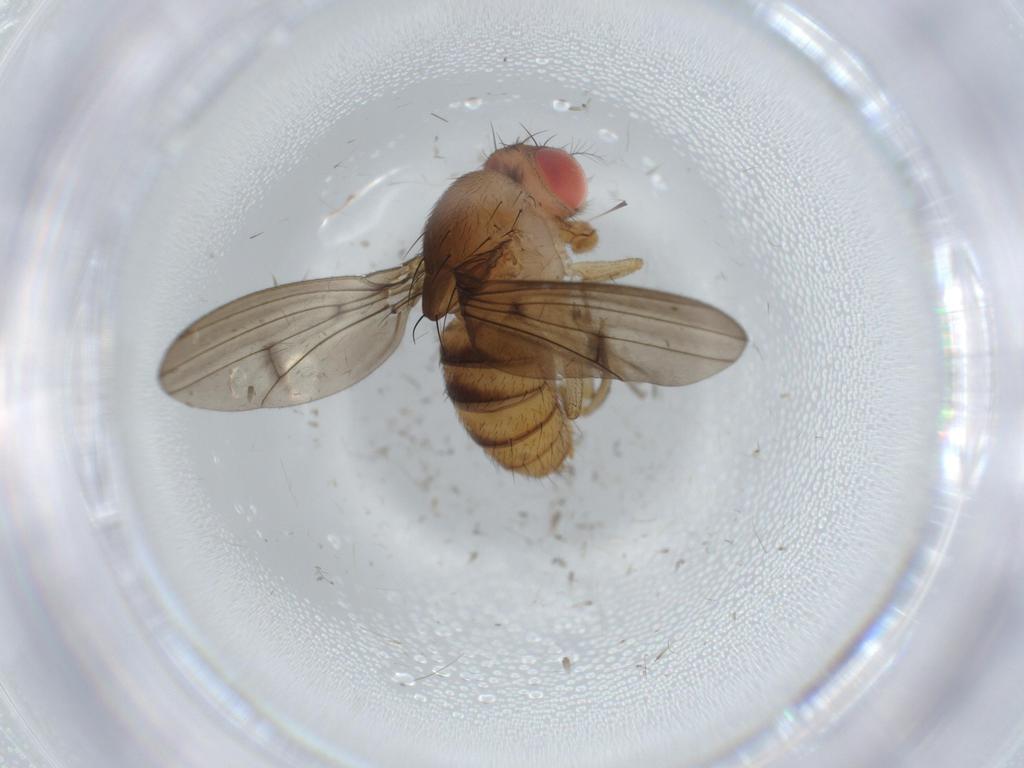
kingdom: Animalia
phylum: Arthropoda
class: Insecta
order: Diptera
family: Drosophilidae
